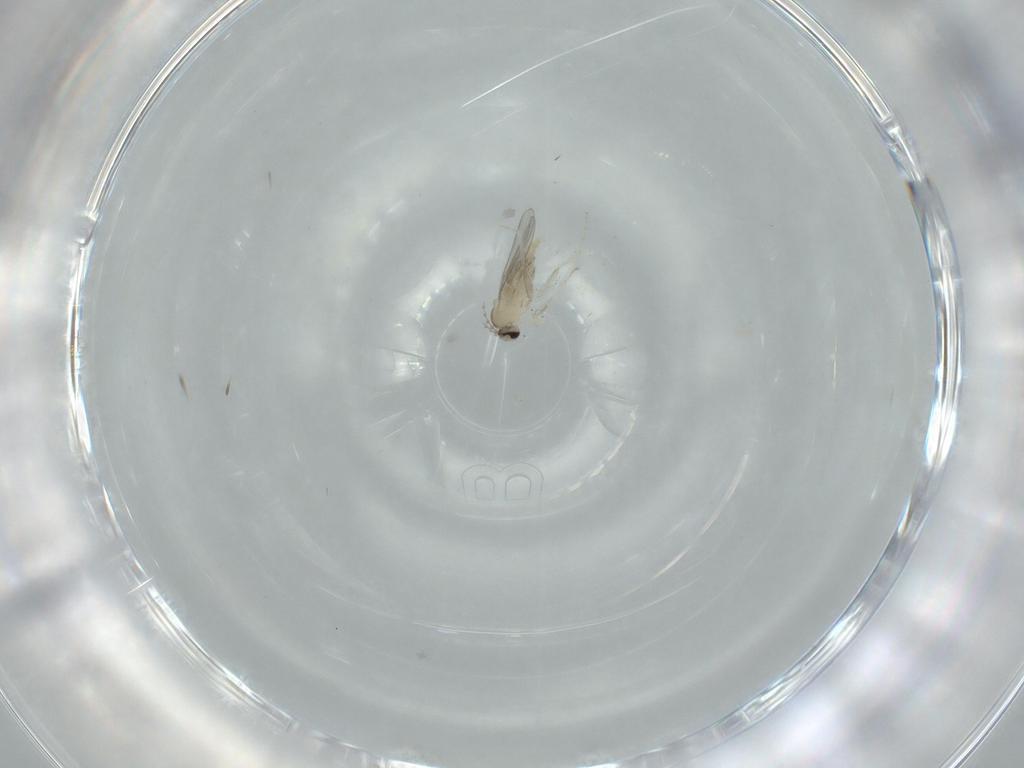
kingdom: Animalia
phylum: Arthropoda
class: Insecta
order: Diptera
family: Cecidomyiidae
